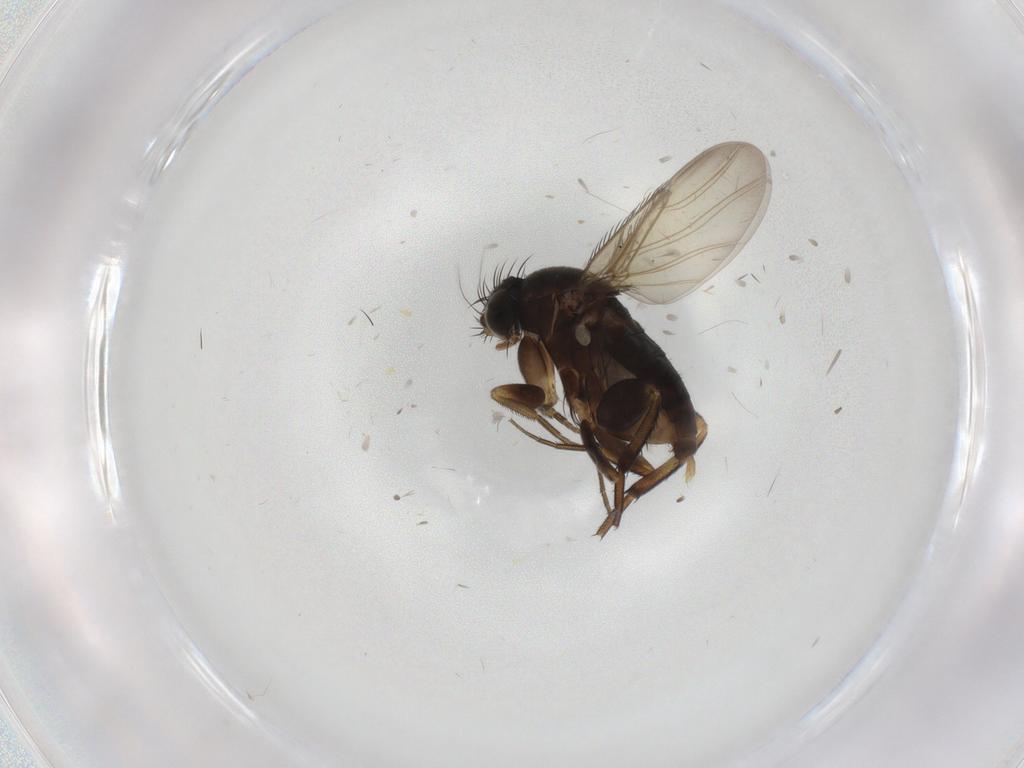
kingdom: Animalia
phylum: Arthropoda
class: Insecta
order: Diptera
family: Phoridae
